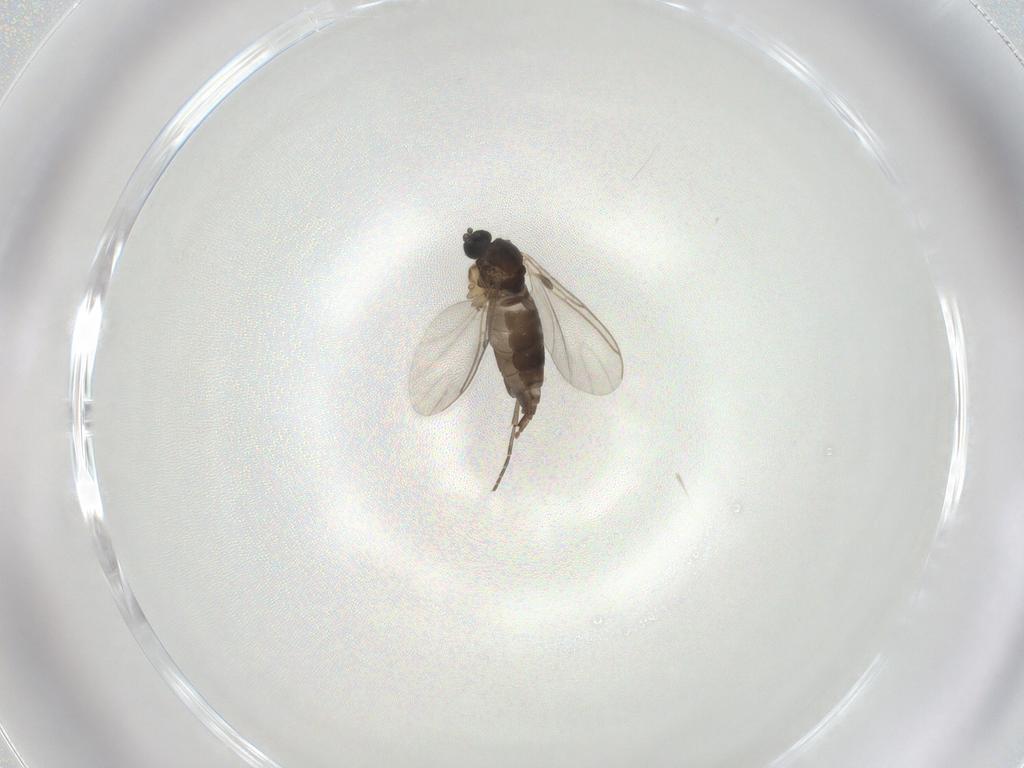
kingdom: Animalia
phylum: Arthropoda
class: Insecta
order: Diptera
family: Sciaridae
